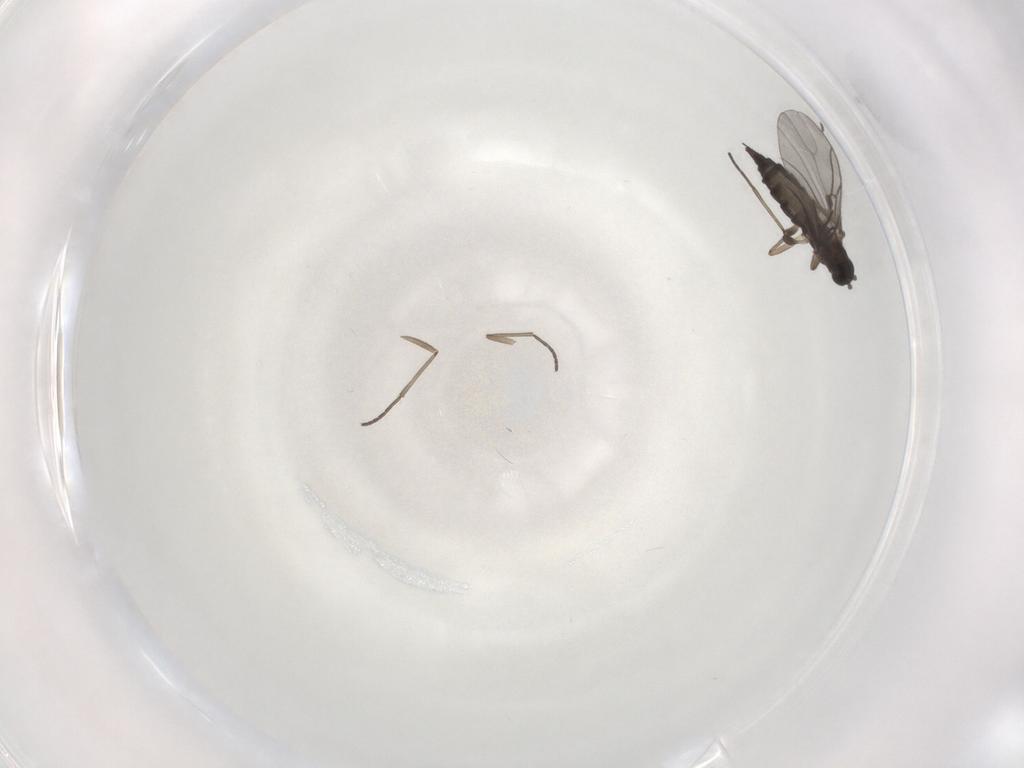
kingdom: Animalia
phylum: Arthropoda
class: Insecta
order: Diptera
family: Sciaridae
